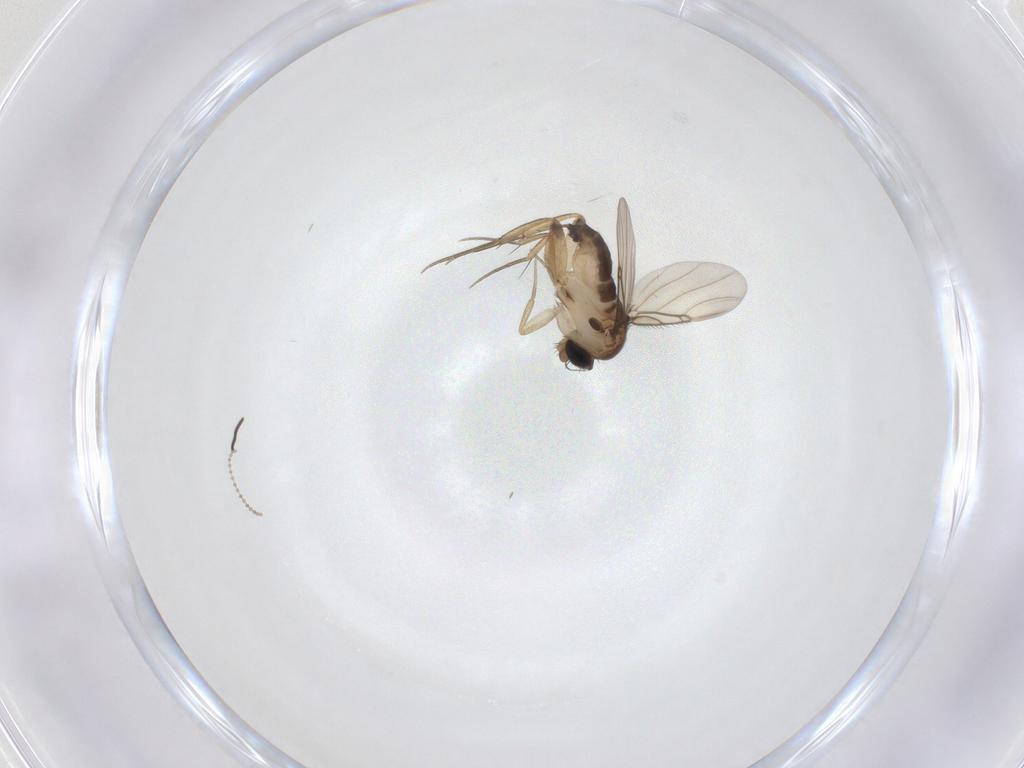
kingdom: Animalia
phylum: Arthropoda
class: Insecta
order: Diptera
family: Phoridae
